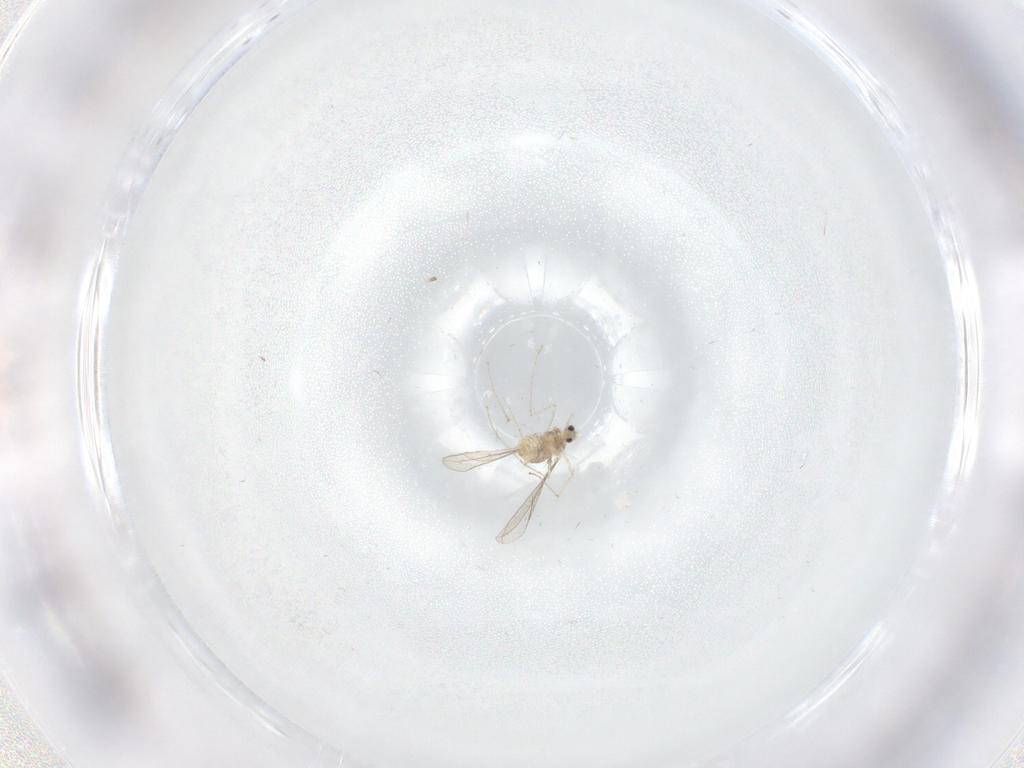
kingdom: Animalia
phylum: Arthropoda
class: Insecta
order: Diptera
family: Chironomidae
